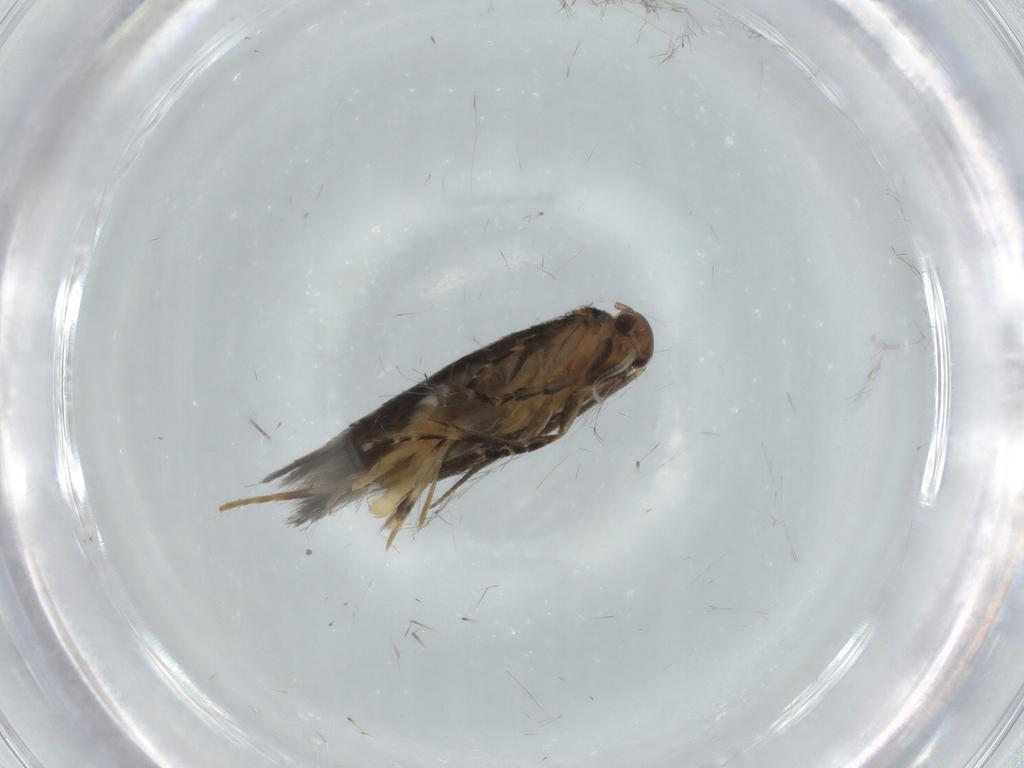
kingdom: Animalia
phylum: Arthropoda
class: Insecta
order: Lepidoptera
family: Elachistidae
